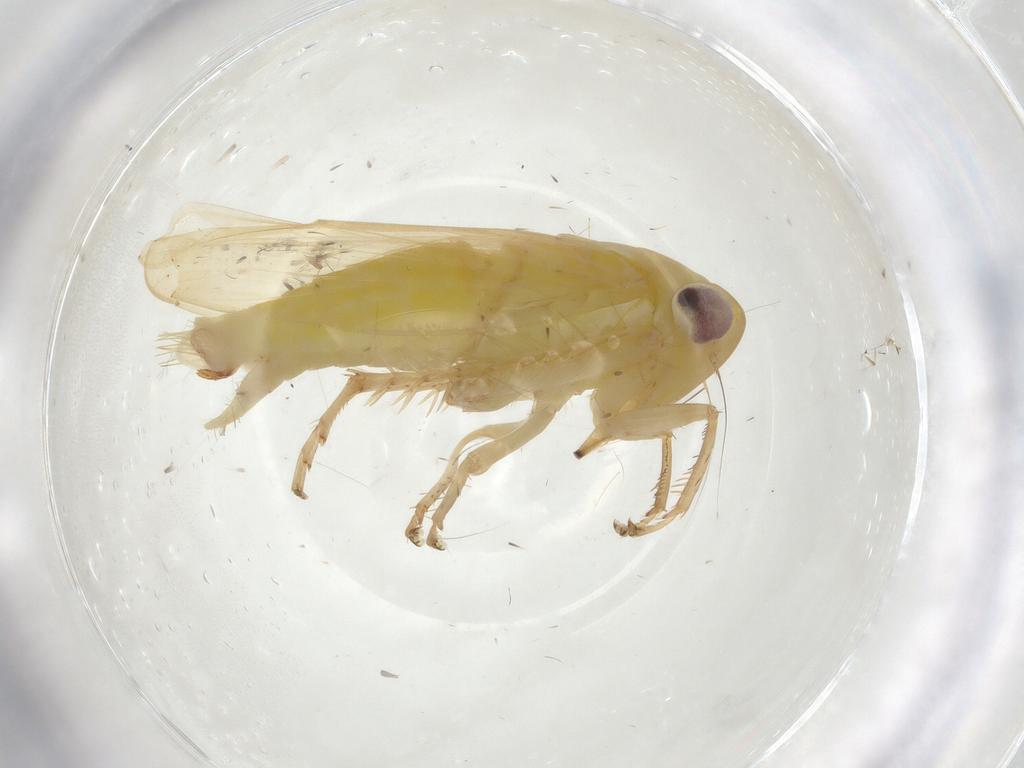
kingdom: Animalia
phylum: Arthropoda
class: Insecta
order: Hemiptera
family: Cicadellidae
